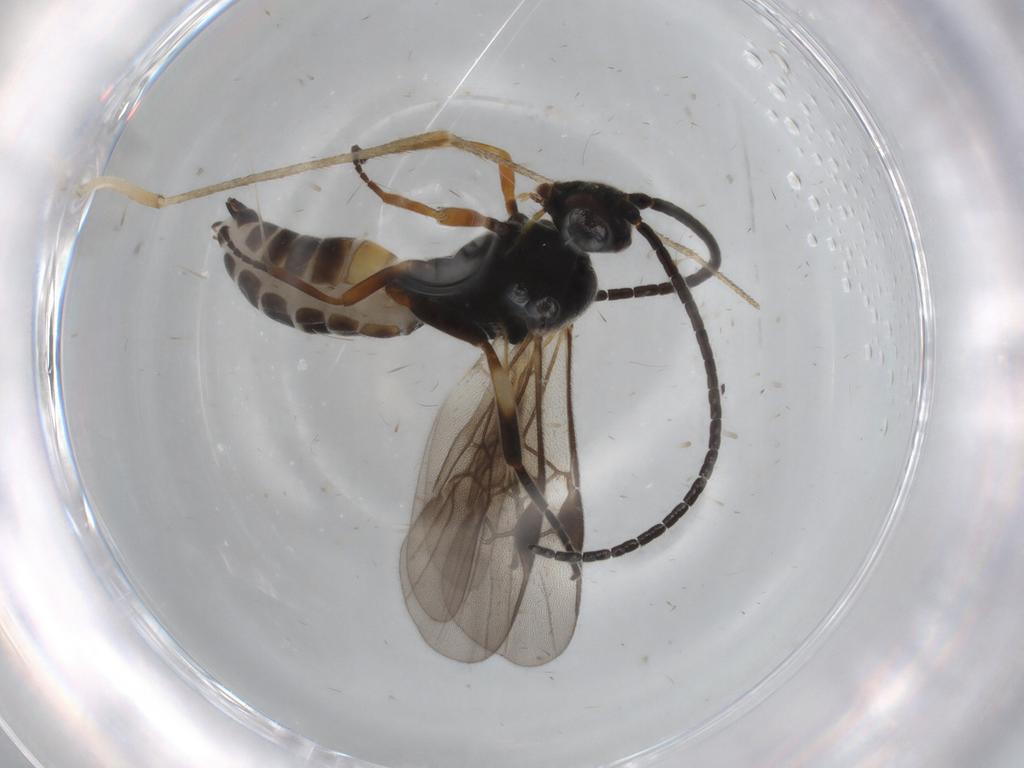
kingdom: Animalia
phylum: Arthropoda
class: Insecta
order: Hymenoptera
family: Braconidae
